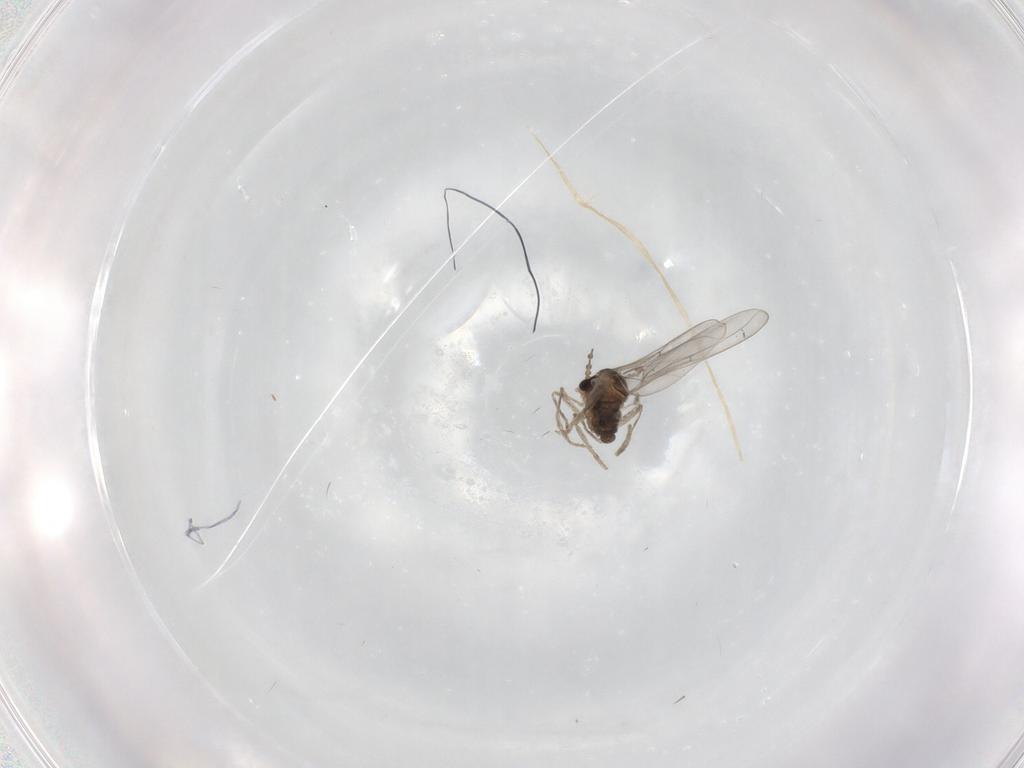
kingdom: Animalia
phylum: Arthropoda
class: Insecta
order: Diptera
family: Cecidomyiidae
